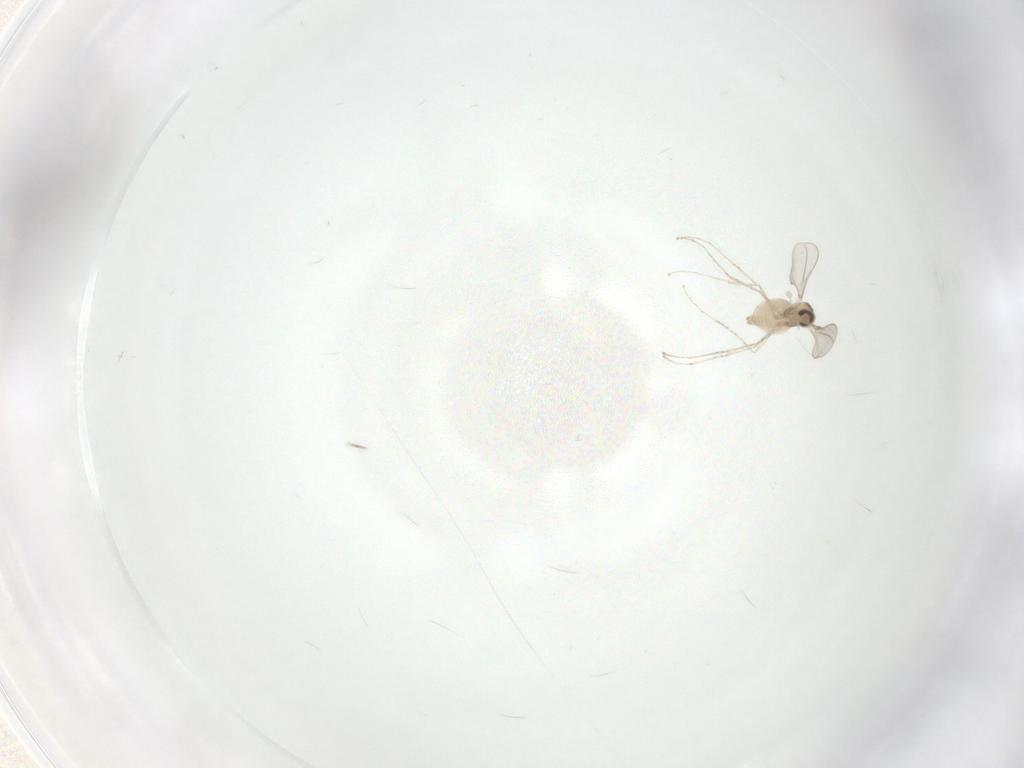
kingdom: Animalia
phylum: Arthropoda
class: Insecta
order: Diptera
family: Cecidomyiidae
